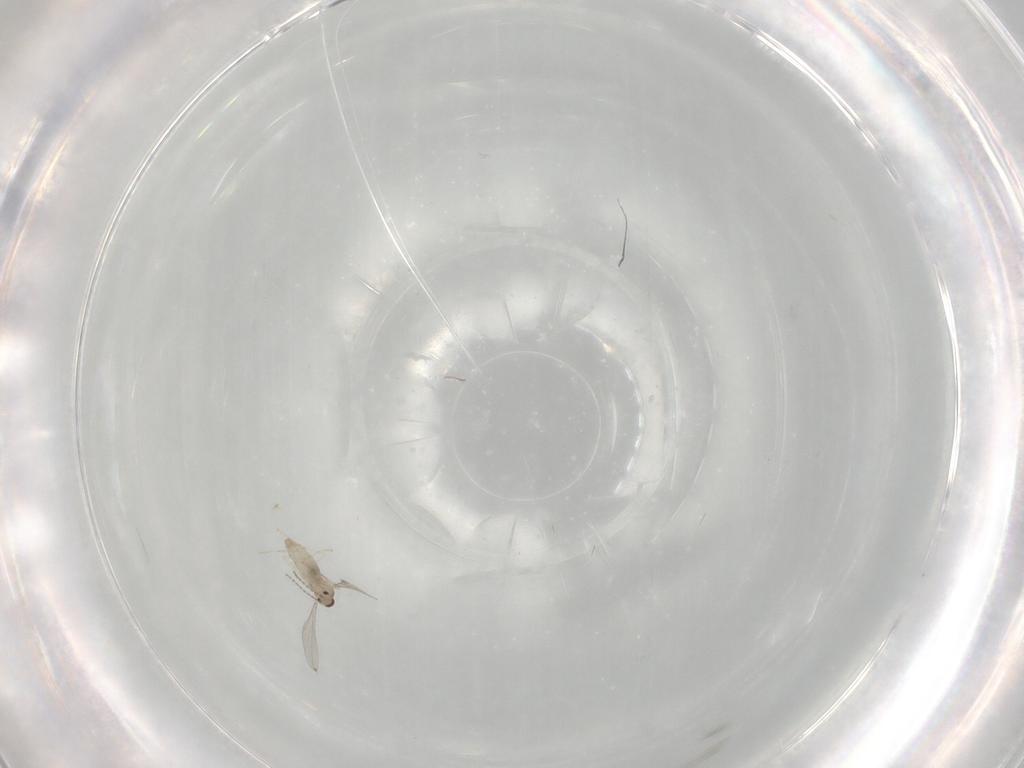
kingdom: Animalia
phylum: Arthropoda
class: Insecta
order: Diptera
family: Cecidomyiidae
